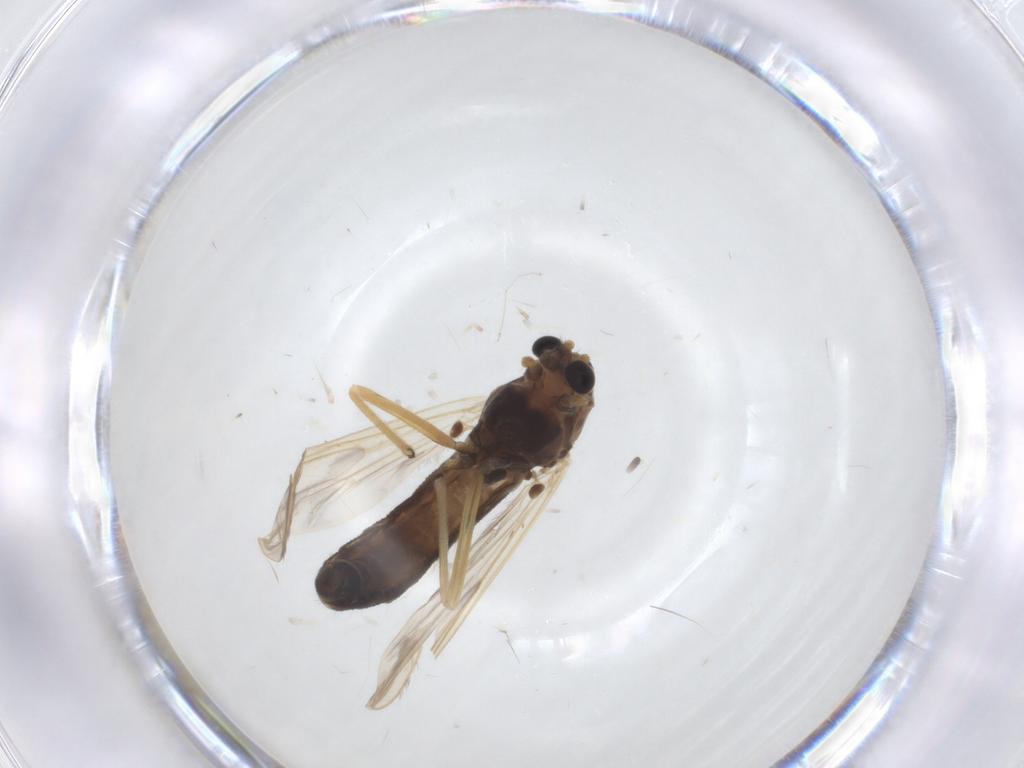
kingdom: Animalia
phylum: Arthropoda
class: Insecta
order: Diptera
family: Chironomidae
